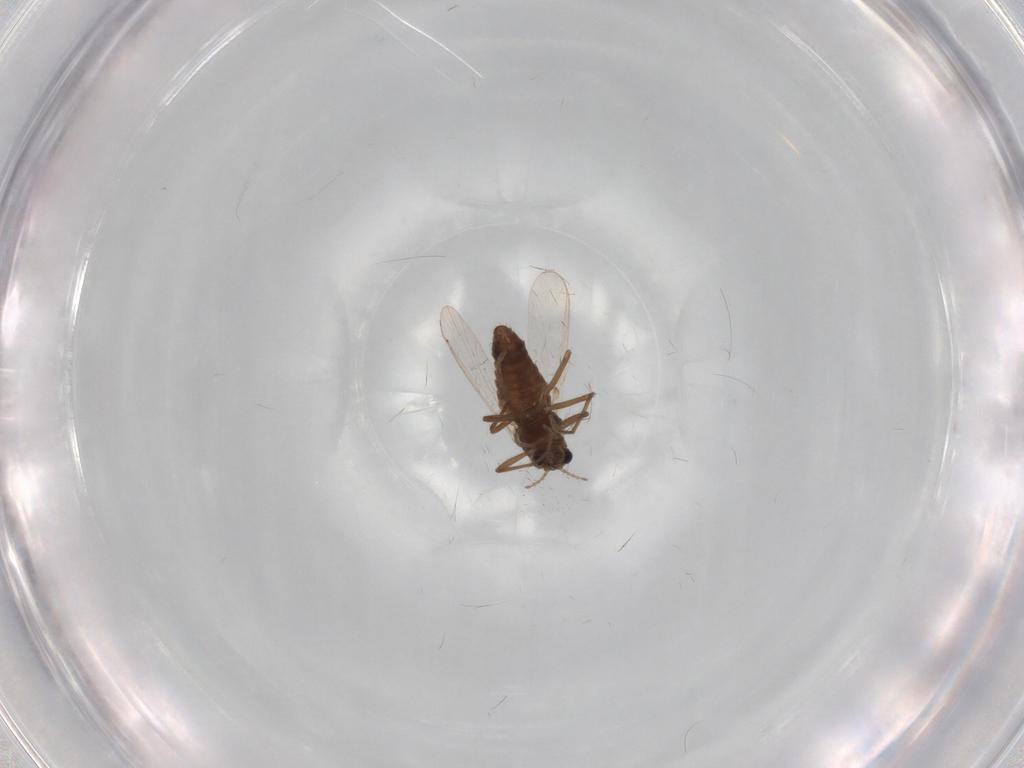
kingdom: Animalia
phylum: Arthropoda
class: Insecta
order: Diptera
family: Chironomidae
